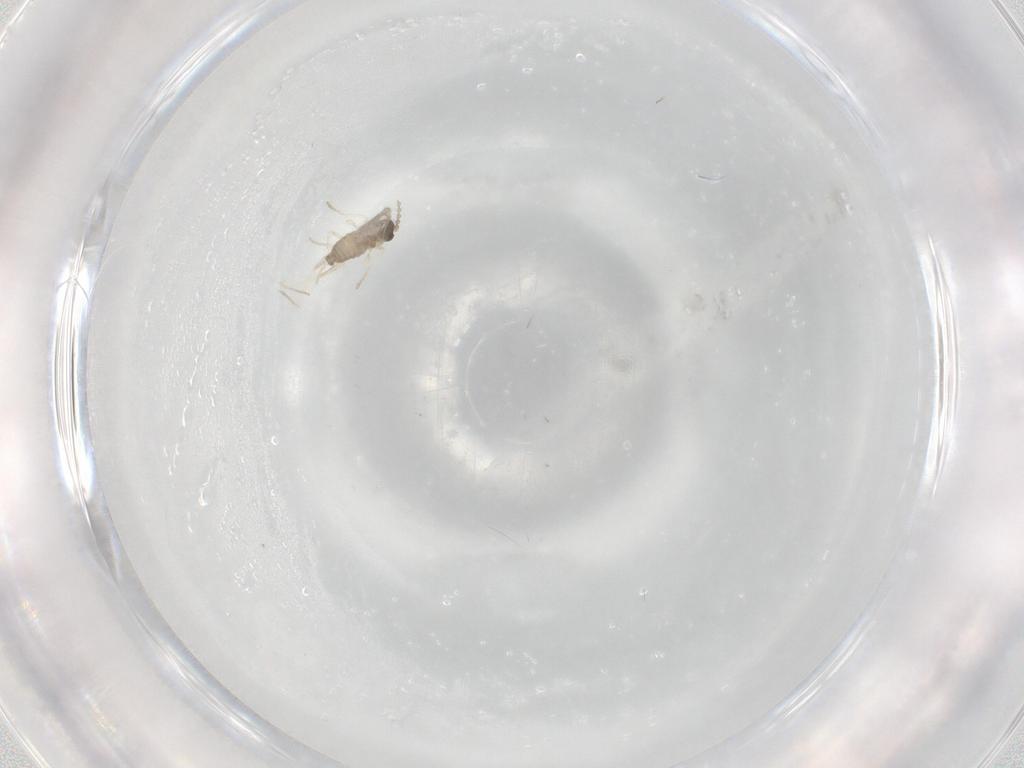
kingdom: Animalia
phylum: Arthropoda
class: Insecta
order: Diptera
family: Cecidomyiidae
